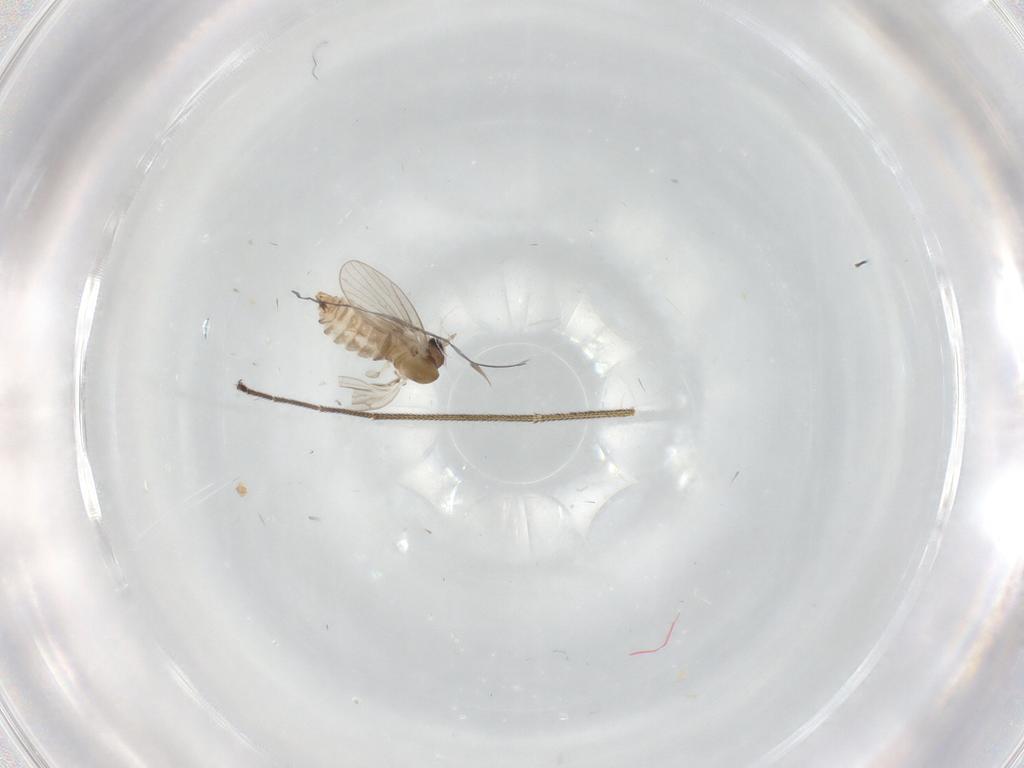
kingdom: Animalia
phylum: Arthropoda
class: Insecta
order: Diptera
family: Dolichopodidae
